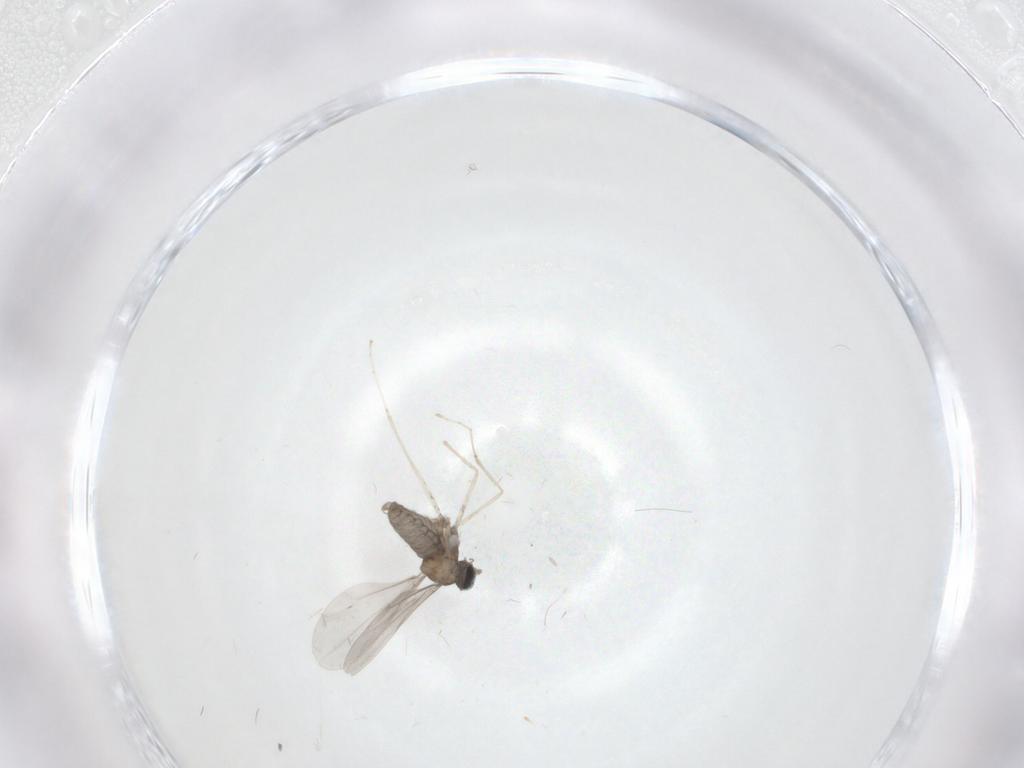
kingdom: Animalia
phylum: Arthropoda
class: Insecta
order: Diptera
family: Cecidomyiidae
